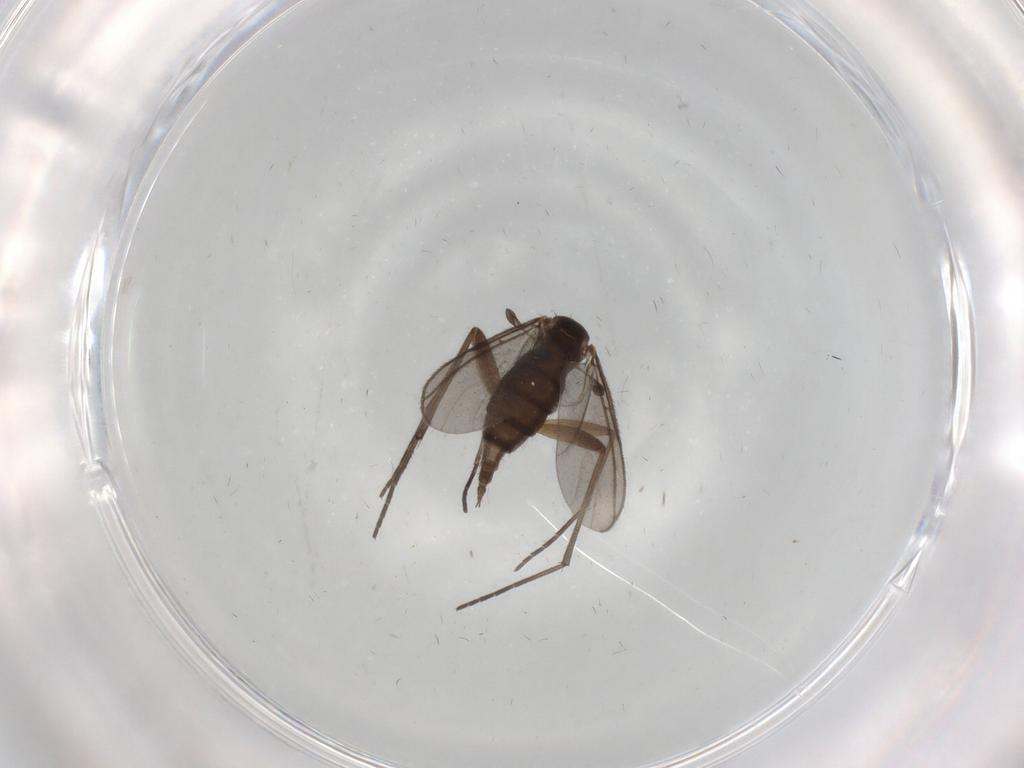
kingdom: Animalia
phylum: Arthropoda
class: Insecta
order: Diptera
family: Sciaridae
